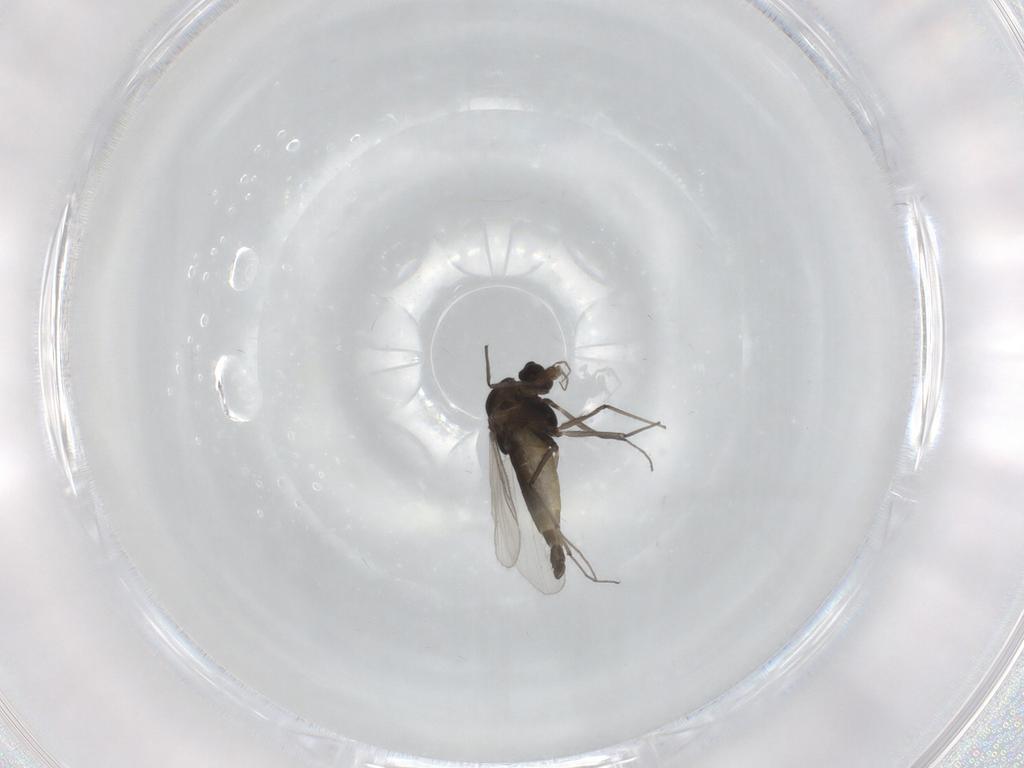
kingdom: Animalia
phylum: Arthropoda
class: Insecta
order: Diptera
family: Chironomidae
